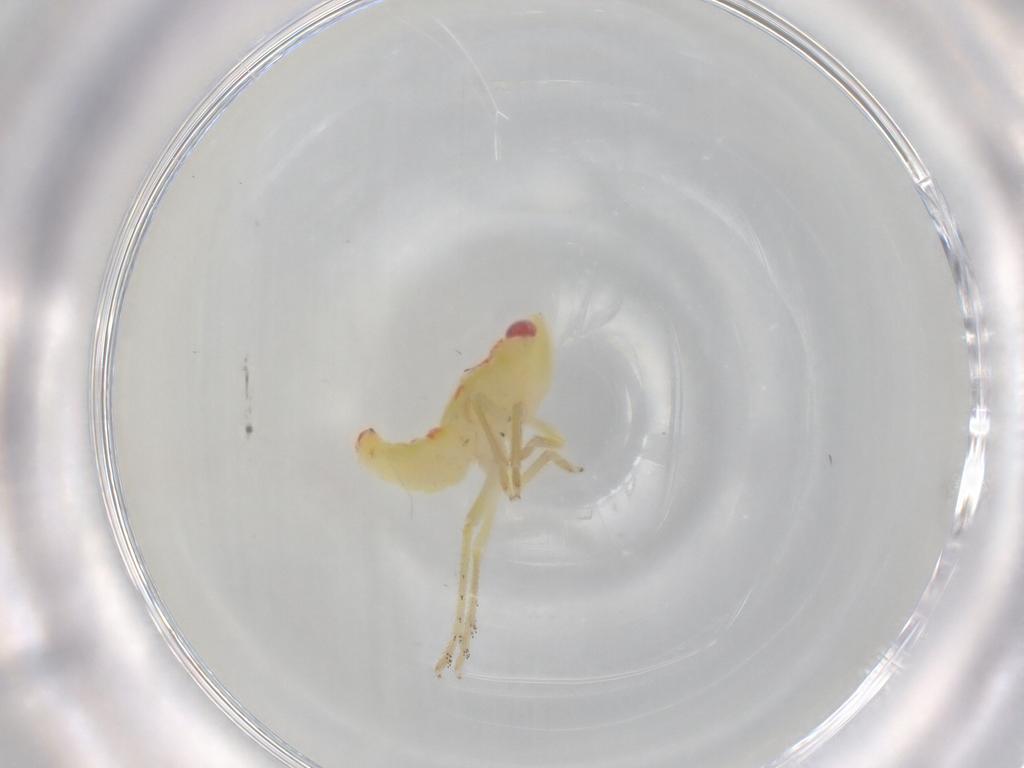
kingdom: Animalia
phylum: Arthropoda
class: Insecta
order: Hemiptera
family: Tropiduchidae
